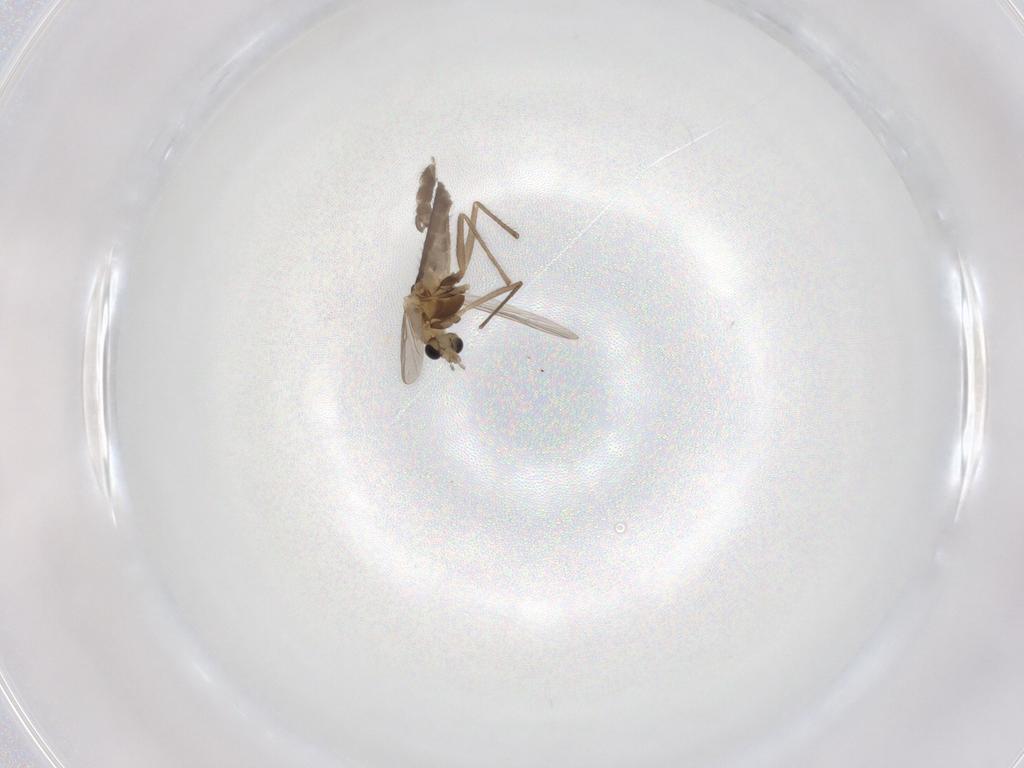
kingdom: Animalia
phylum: Arthropoda
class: Insecta
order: Diptera
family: Chironomidae
